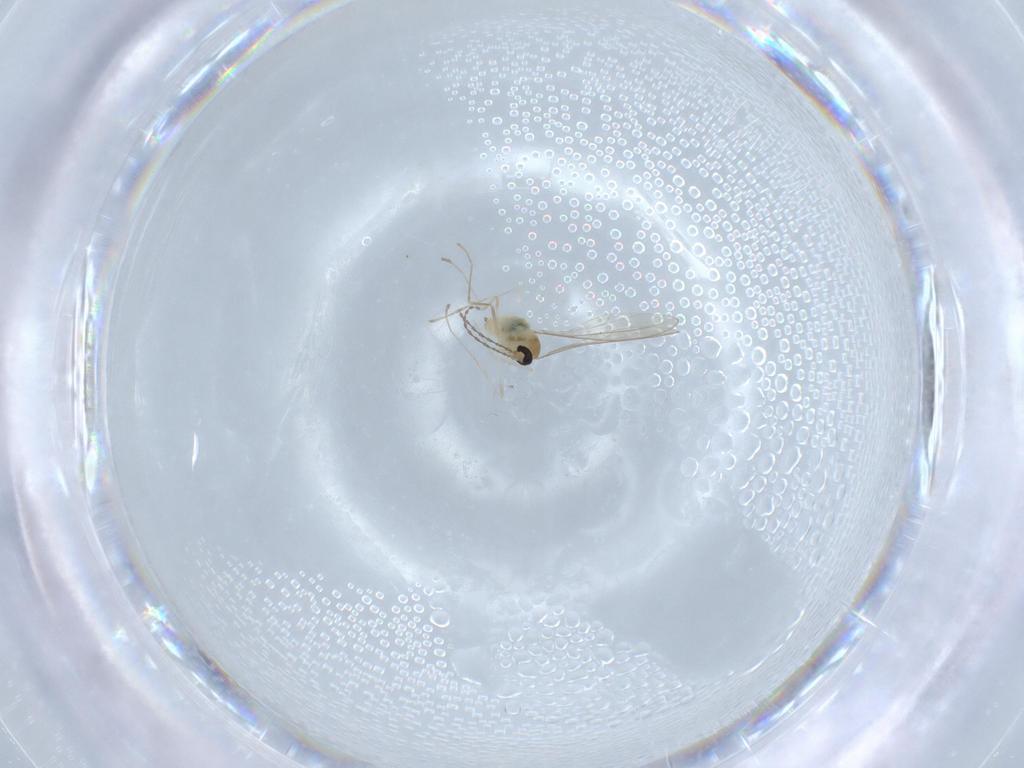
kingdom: Animalia
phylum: Arthropoda
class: Insecta
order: Diptera
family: Cecidomyiidae
